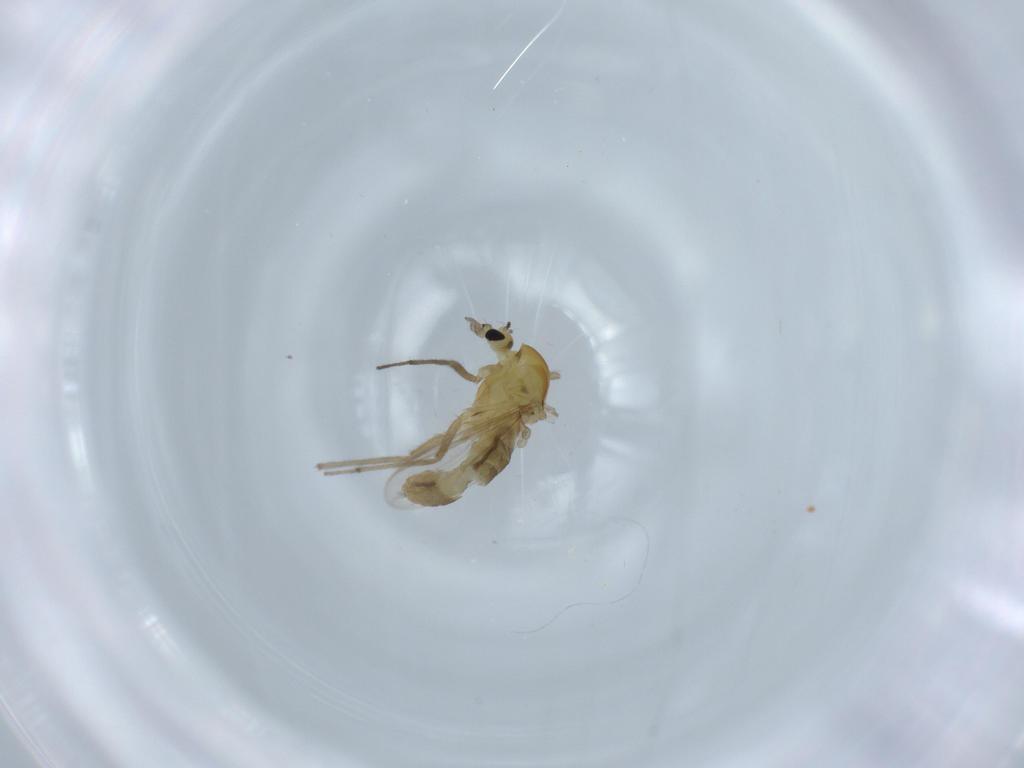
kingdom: Animalia
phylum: Arthropoda
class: Insecta
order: Diptera
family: Chironomidae
